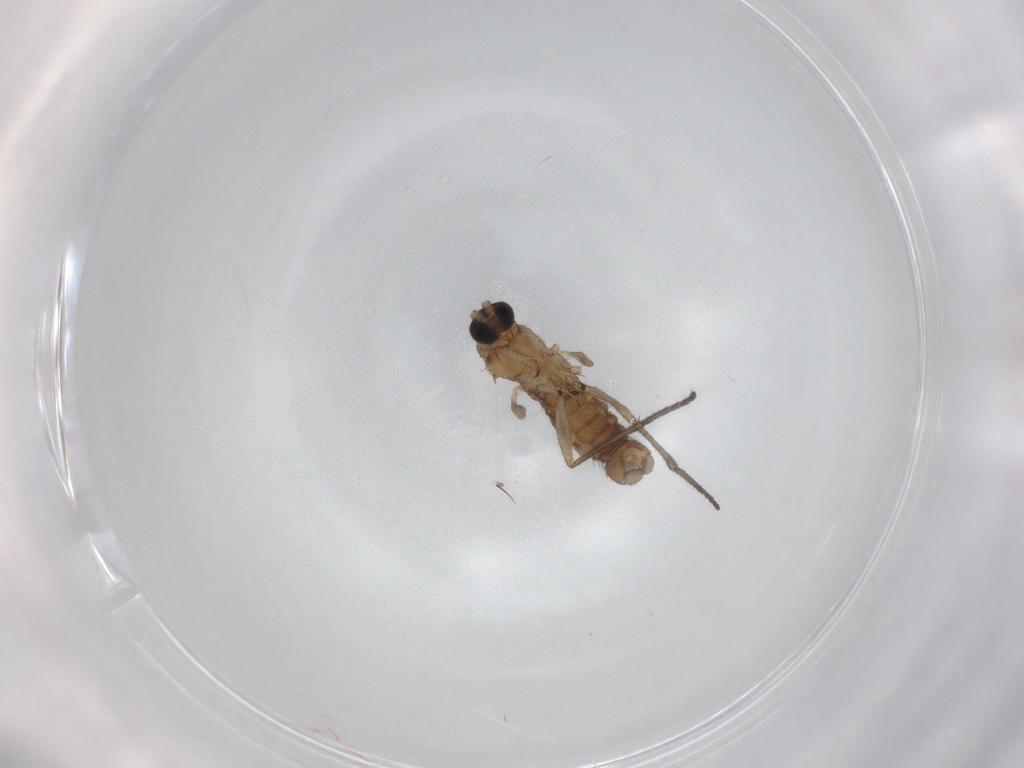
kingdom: Animalia
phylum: Arthropoda
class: Insecta
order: Diptera
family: Sciaridae
